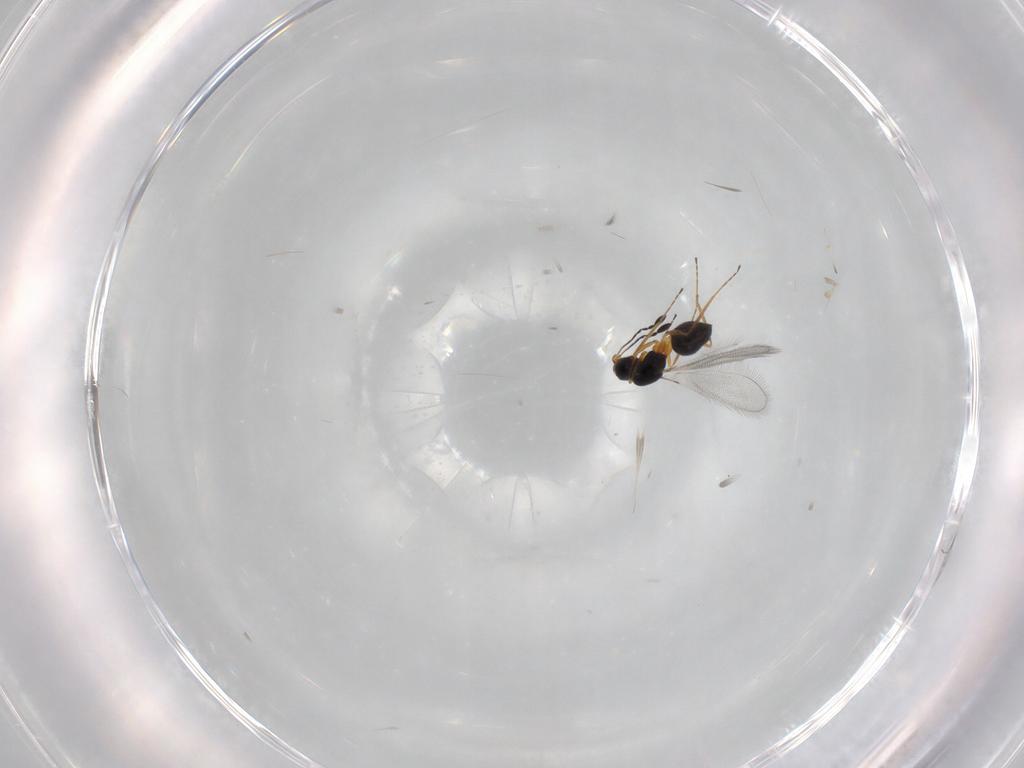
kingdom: Animalia
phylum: Arthropoda
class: Insecta
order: Hymenoptera
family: Mymaridae
